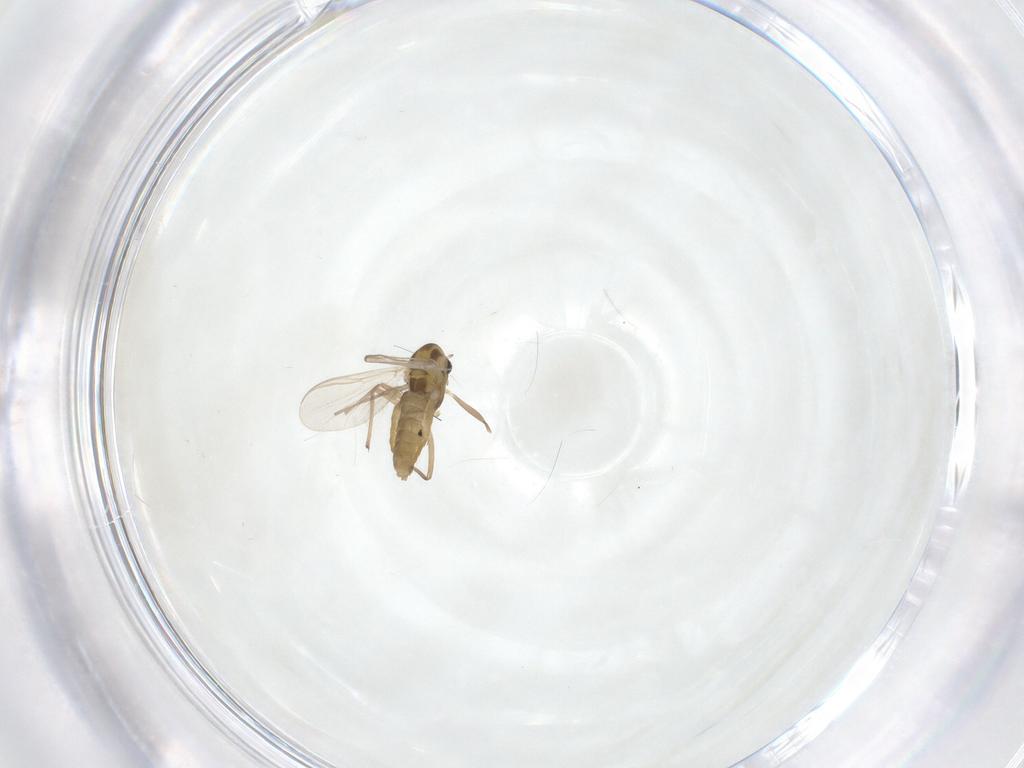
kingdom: Animalia
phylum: Arthropoda
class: Insecta
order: Diptera
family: Chironomidae
